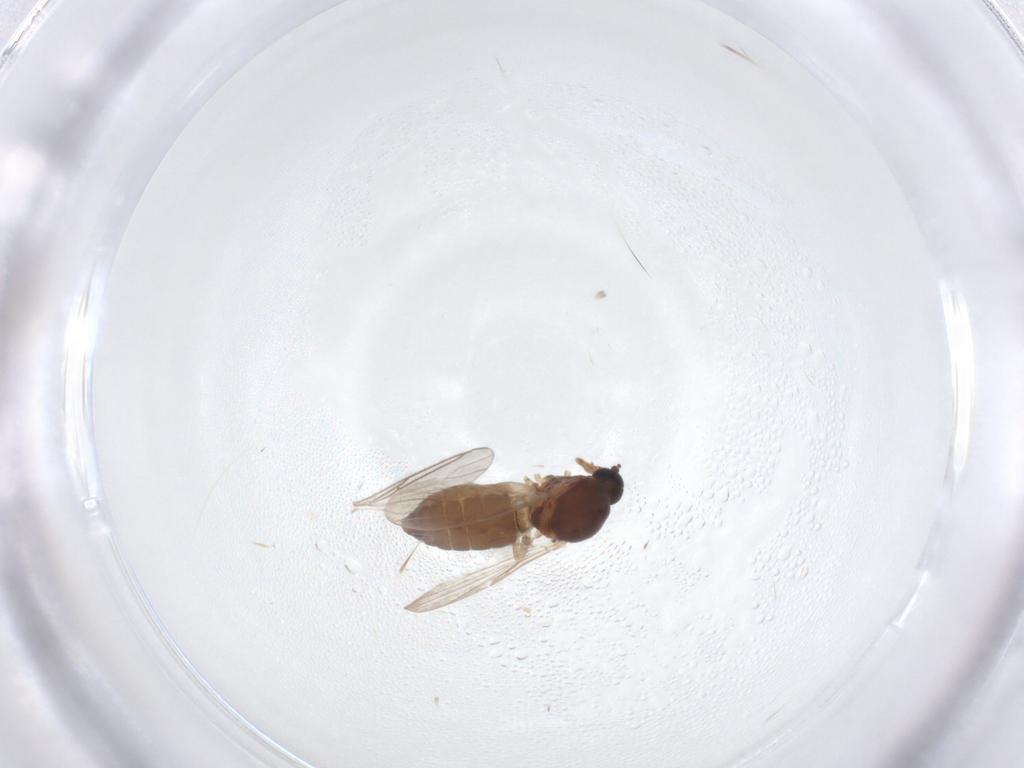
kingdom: Animalia
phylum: Arthropoda
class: Insecta
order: Diptera
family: Ceratopogonidae
